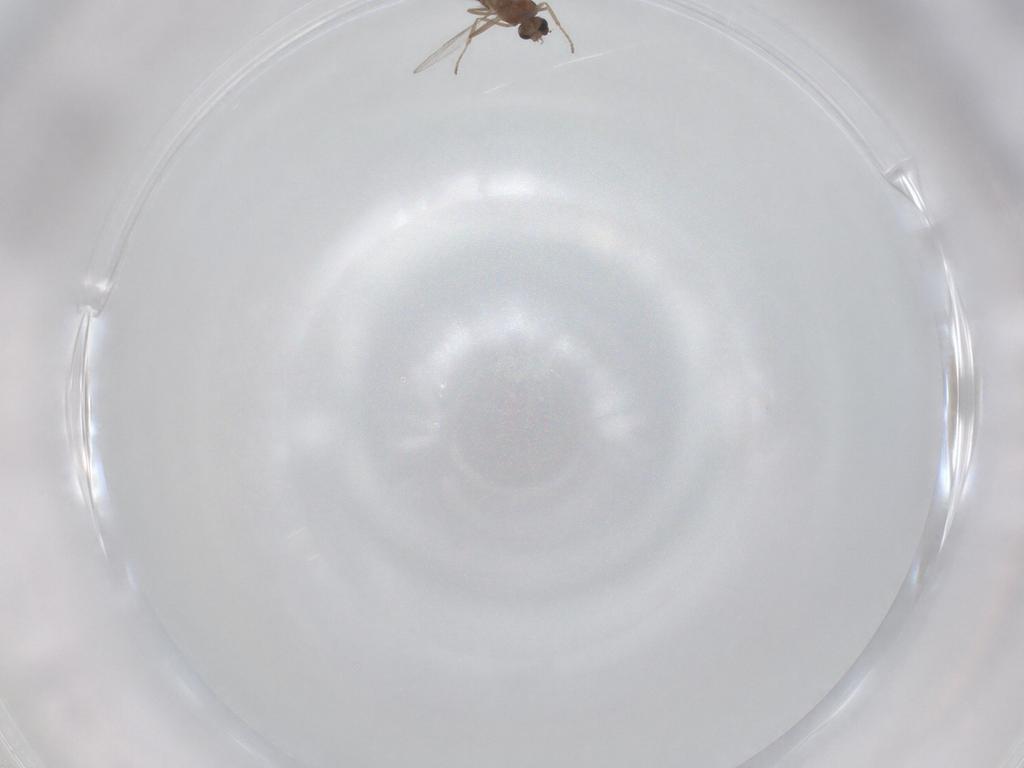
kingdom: Animalia
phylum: Arthropoda
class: Insecta
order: Diptera
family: Ceratopogonidae
